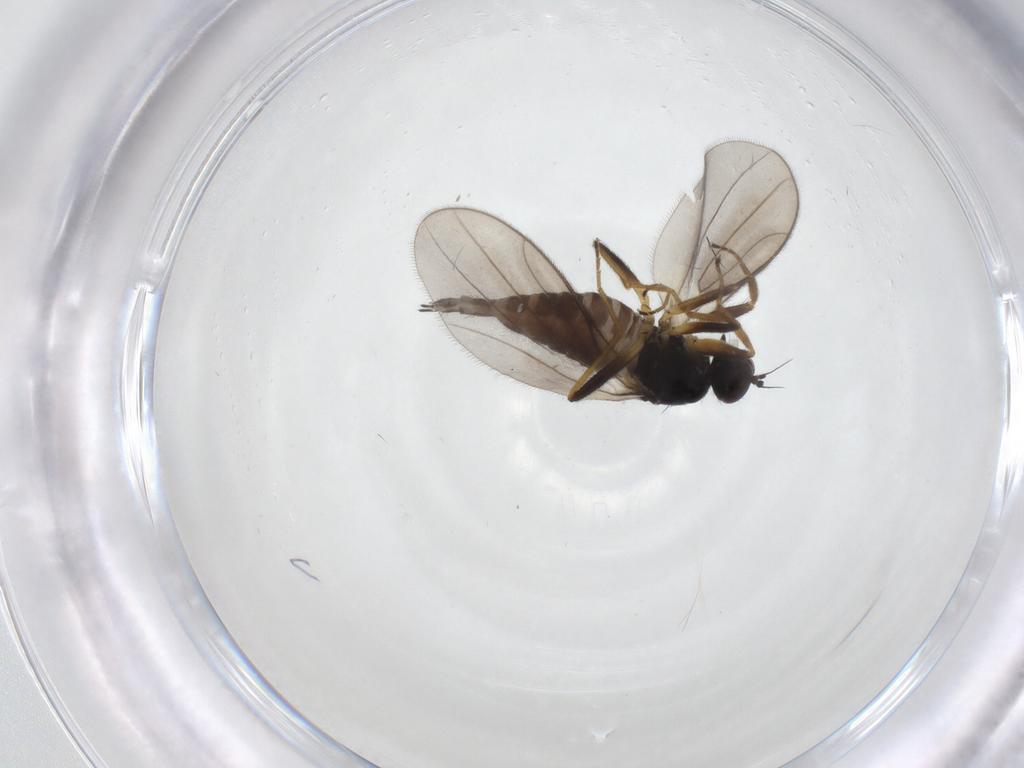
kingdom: Animalia
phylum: Arthropoda
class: Insecta
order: Diptera
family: Hybotidae
